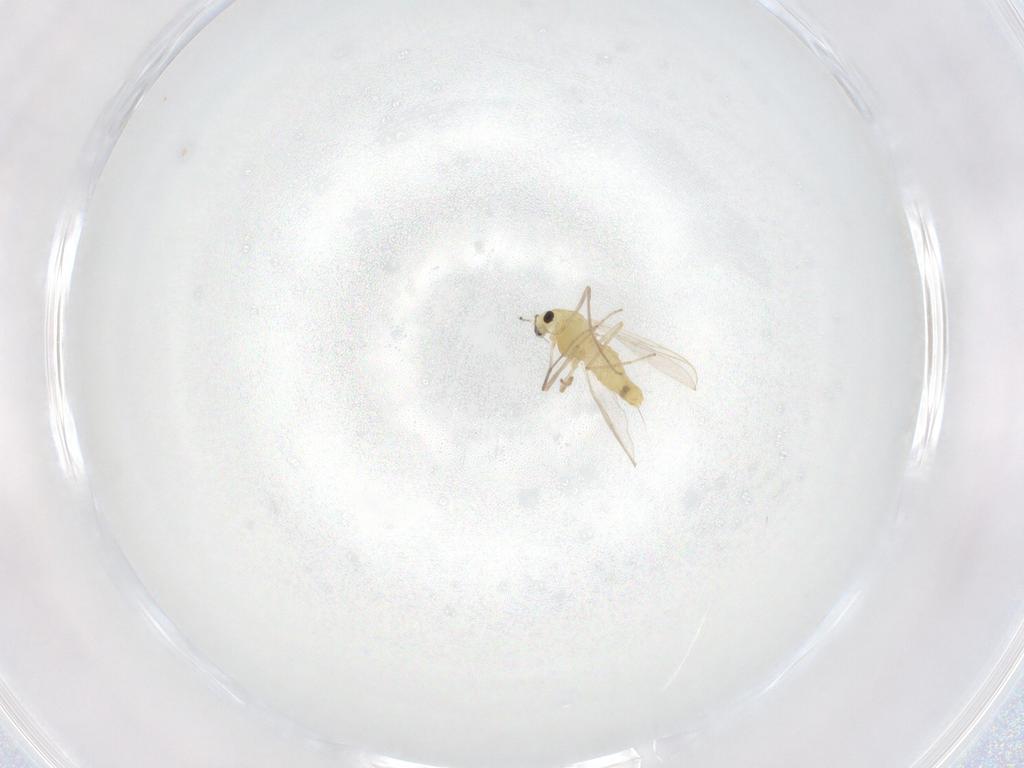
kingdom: Animalia
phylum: Arthropoda
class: Insecta
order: Diptera
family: Chironomidae
